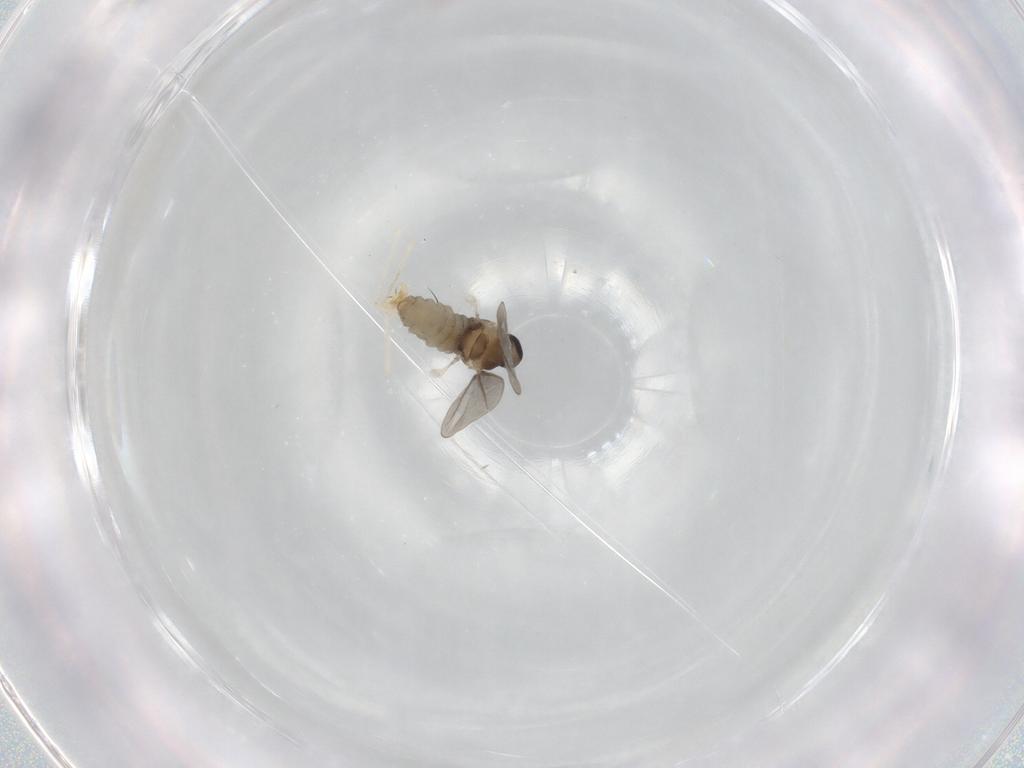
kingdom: Animalia
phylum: Arthropoda
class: Insecta
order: Diptera
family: Cecidomyiidae
